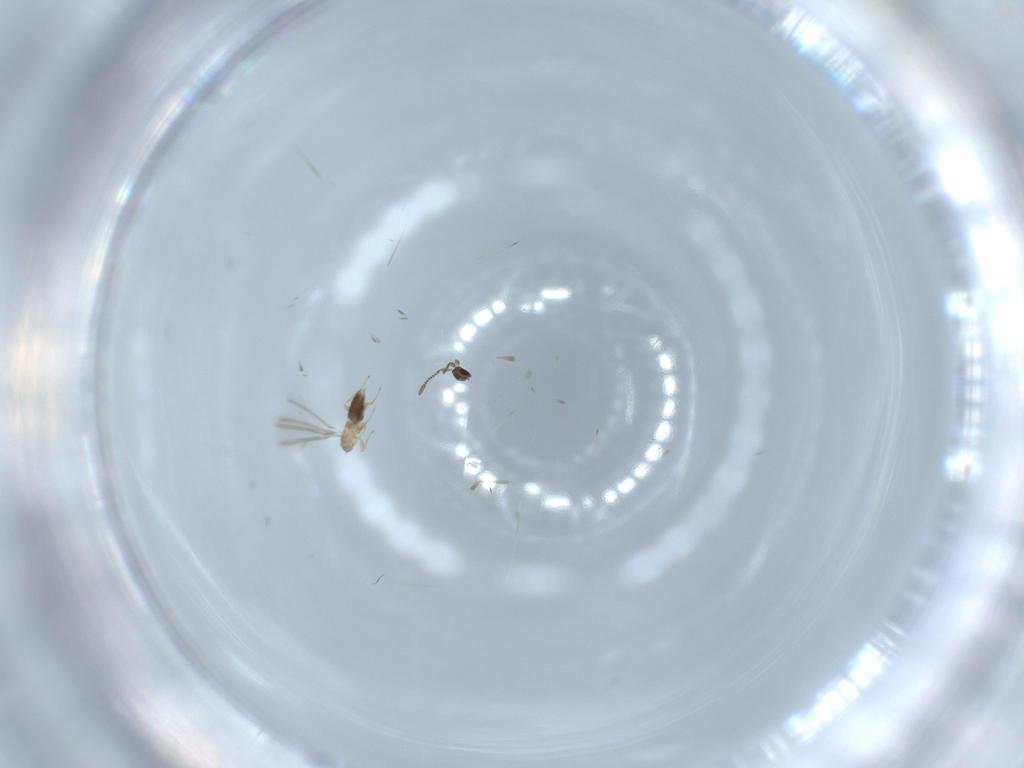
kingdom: Animalia
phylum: Arthropoda
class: Insecta
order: Hymenoptera
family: Mymaridae
